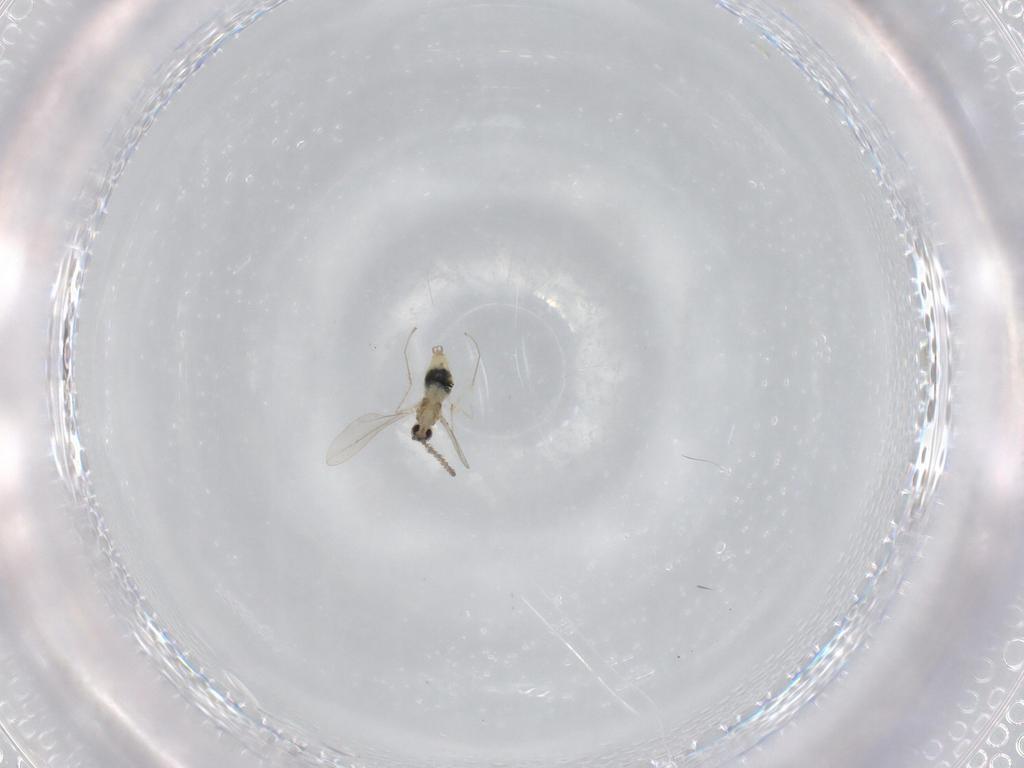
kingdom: Animalia
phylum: Arthropoda
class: Insecta
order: Diptera
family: Cecidomyiidae
